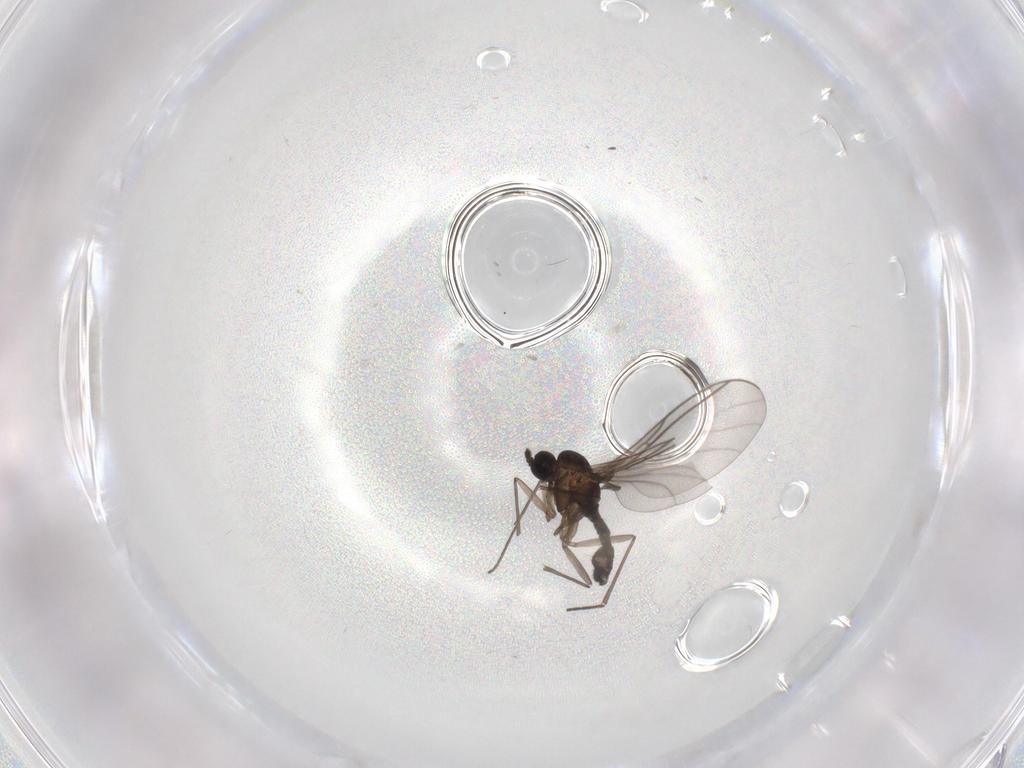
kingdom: Animalia
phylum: Arthropoda
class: Insecta
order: Diptera
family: Sciaridae
